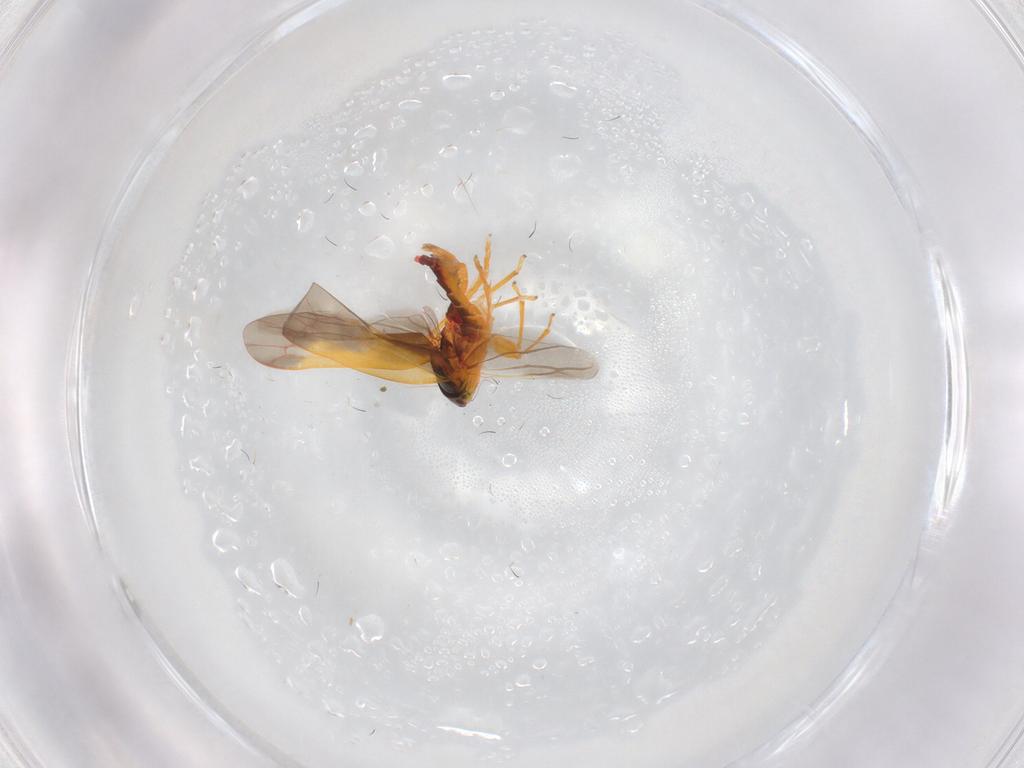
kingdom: Animalia
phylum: Arthropoda
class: Insecta
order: Hemiptera
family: Cicadellidae
